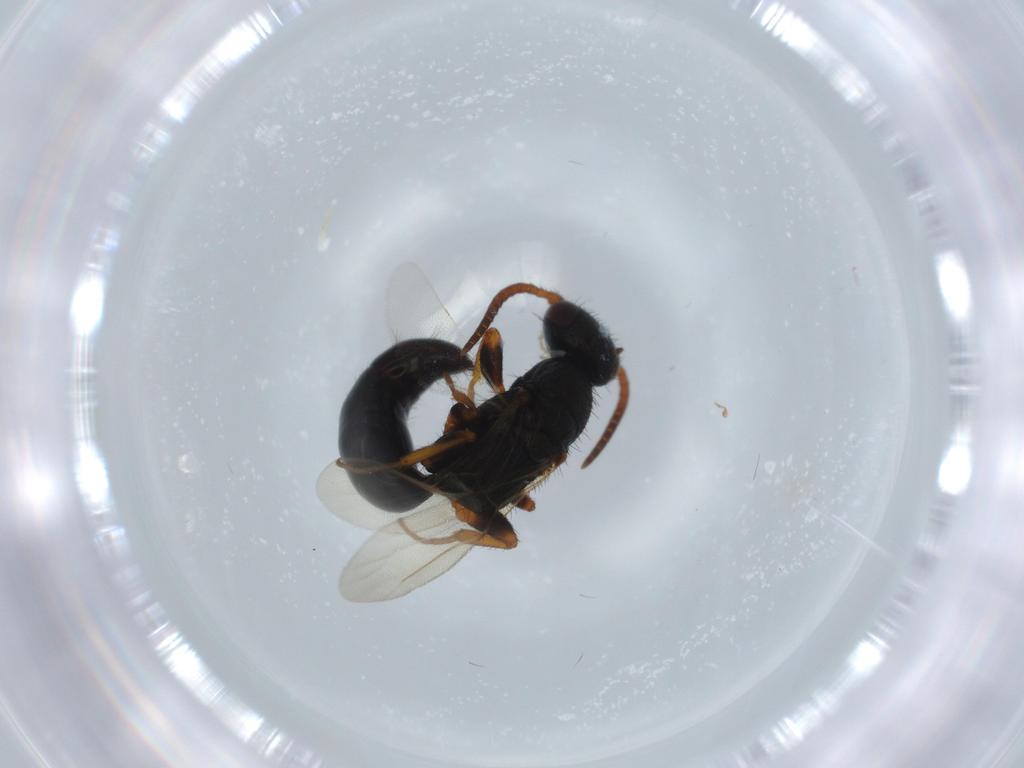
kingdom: Animalia
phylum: Arthropoda
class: Insecta
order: Hymenoptera
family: Bethylidae
